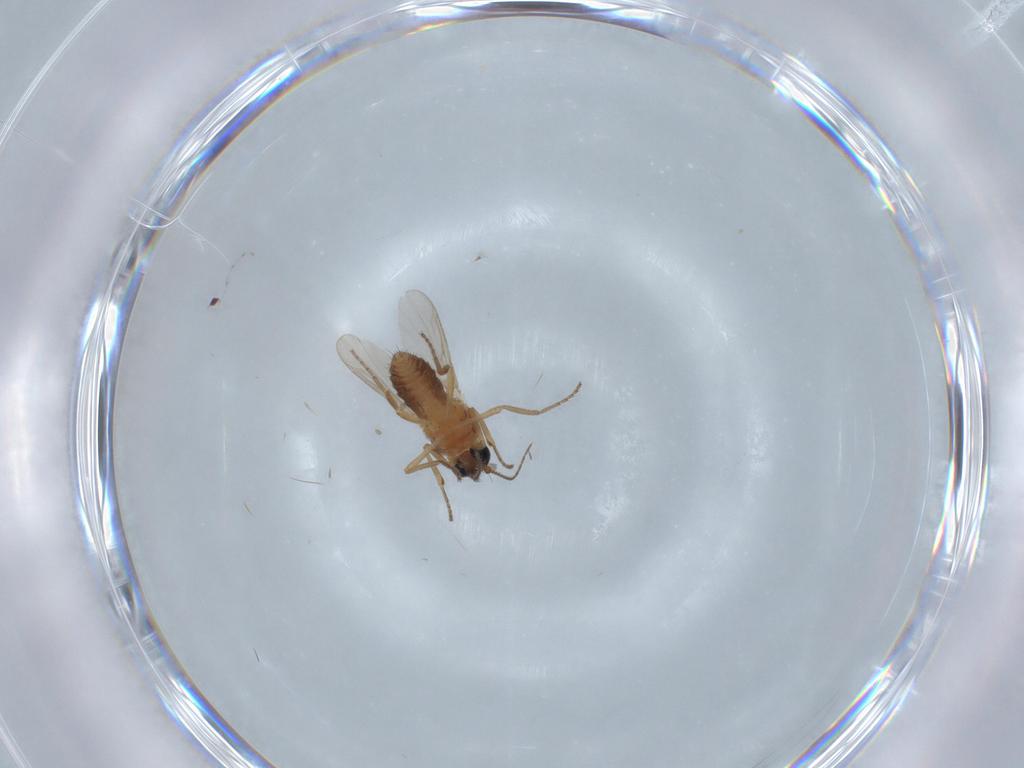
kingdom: Animalia
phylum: Arthropoda
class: Insecta
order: Diptera
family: Ceratopogonidae
